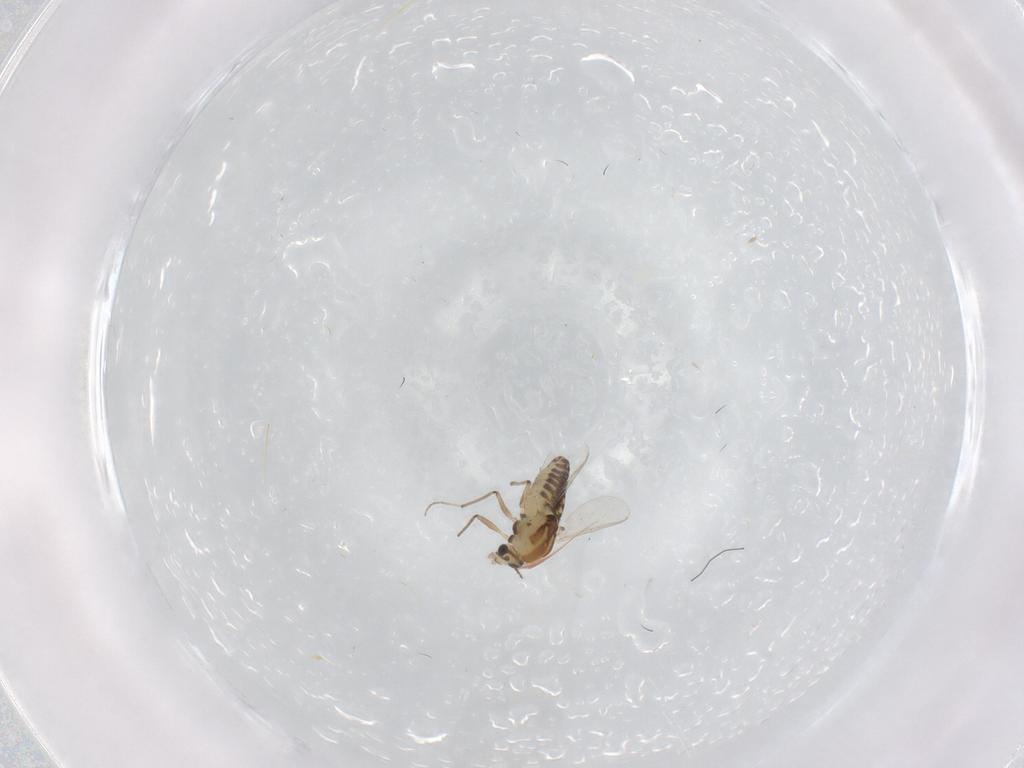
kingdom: Animalia
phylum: Arthropoda
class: Insecta
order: Diptera
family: Chironomidae
